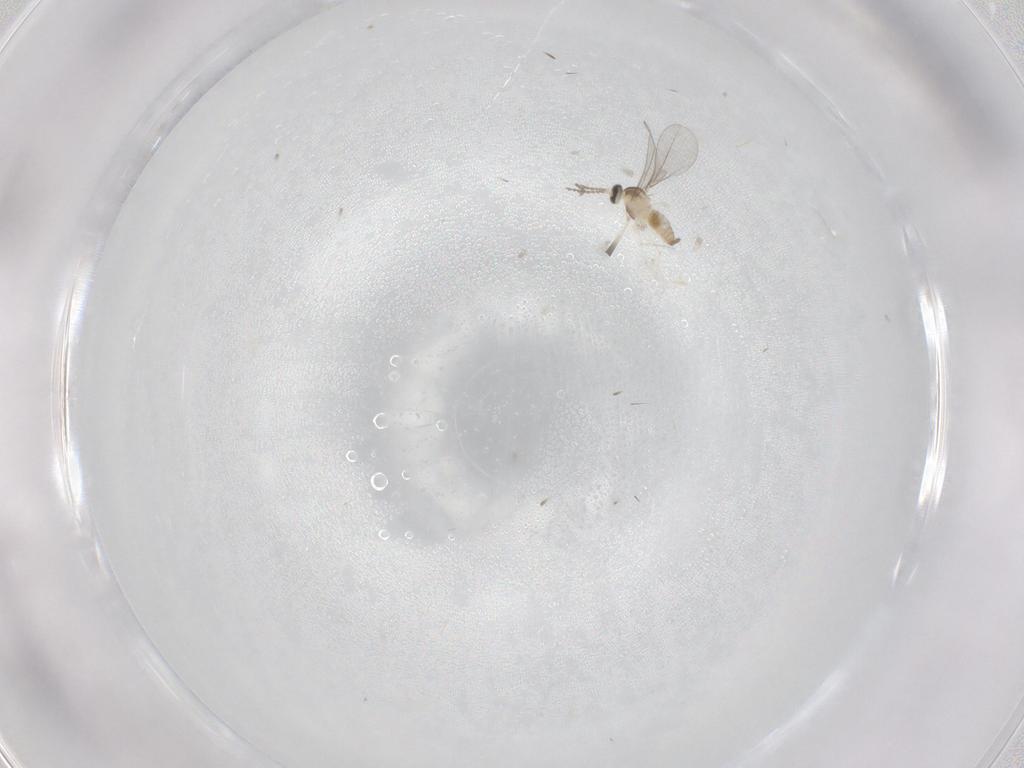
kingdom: Animalia
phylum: Arthropoda
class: Insecta
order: Diptera
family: Cecidomyiidae
